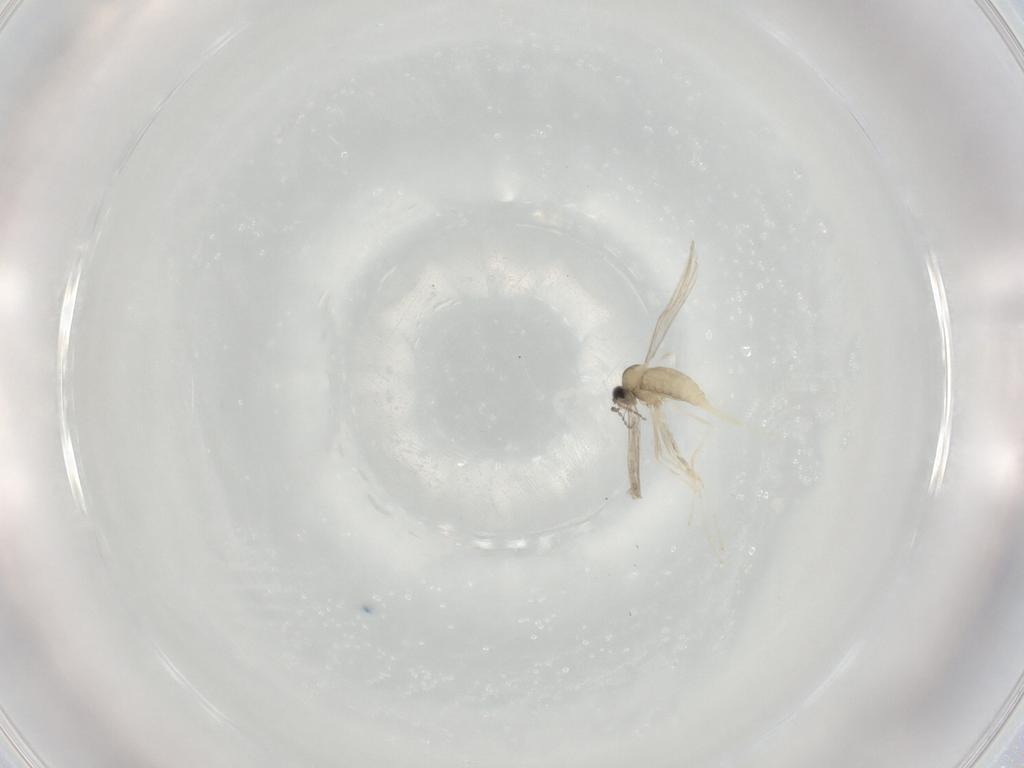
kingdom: Animalia
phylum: Arthropoda
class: Insecta
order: Diptera
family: Cecidomyiidae
